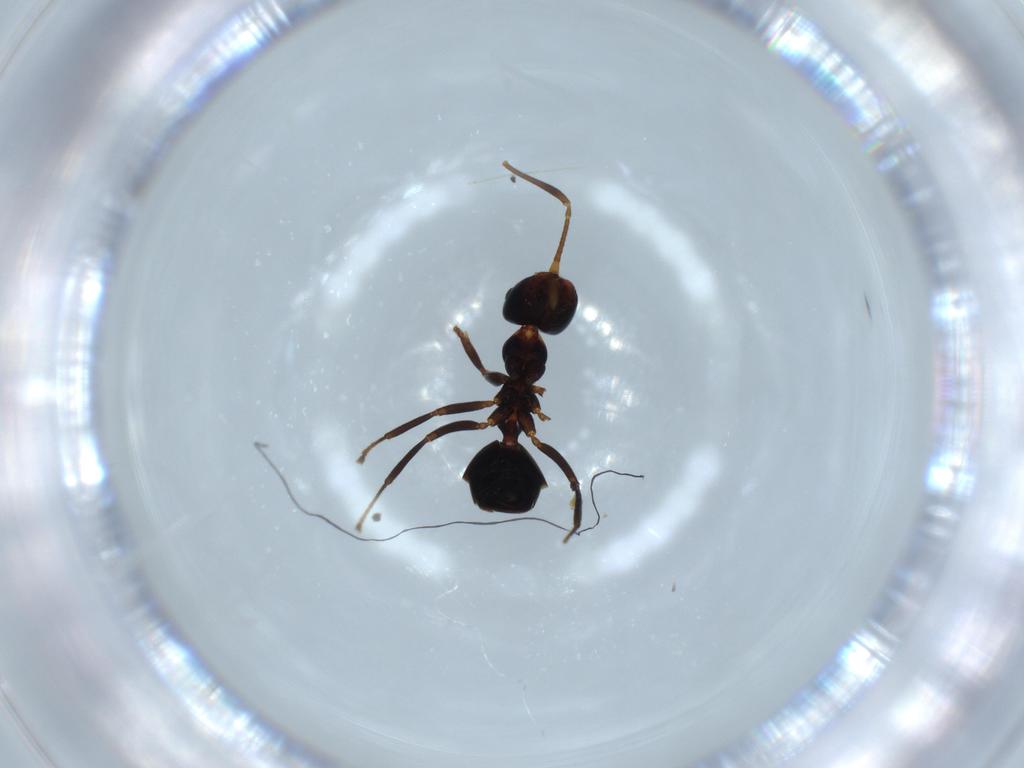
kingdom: Animalia
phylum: Arthropoda
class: Insecta
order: Hymenoptera
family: Formicidae
